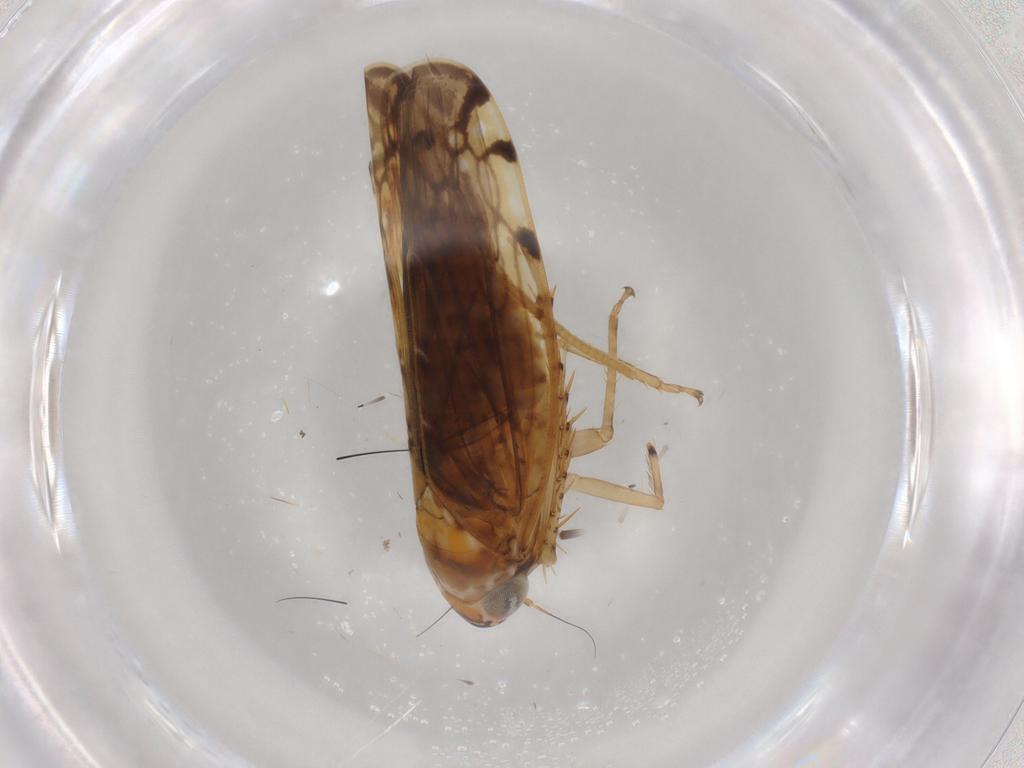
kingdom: Animalia
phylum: Arthropoda
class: Insecta
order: Hemiptera
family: Cicadellidae
